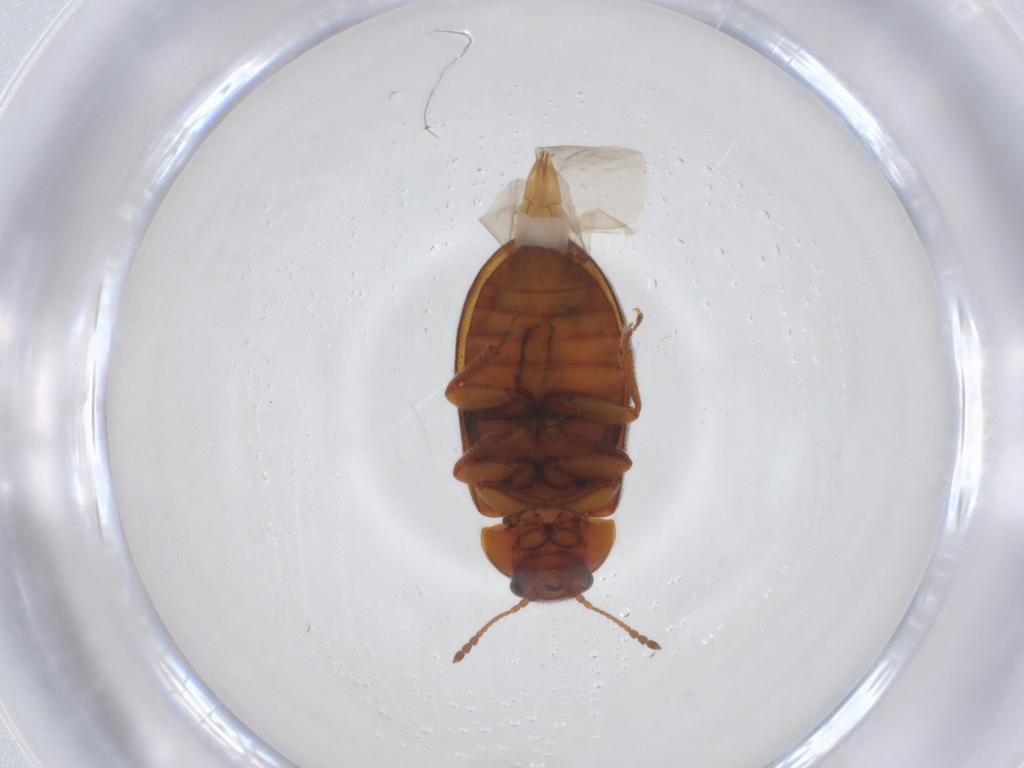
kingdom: Animalia
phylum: Arthropoda
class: Insecta
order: Coleoptera
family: Byturidae
